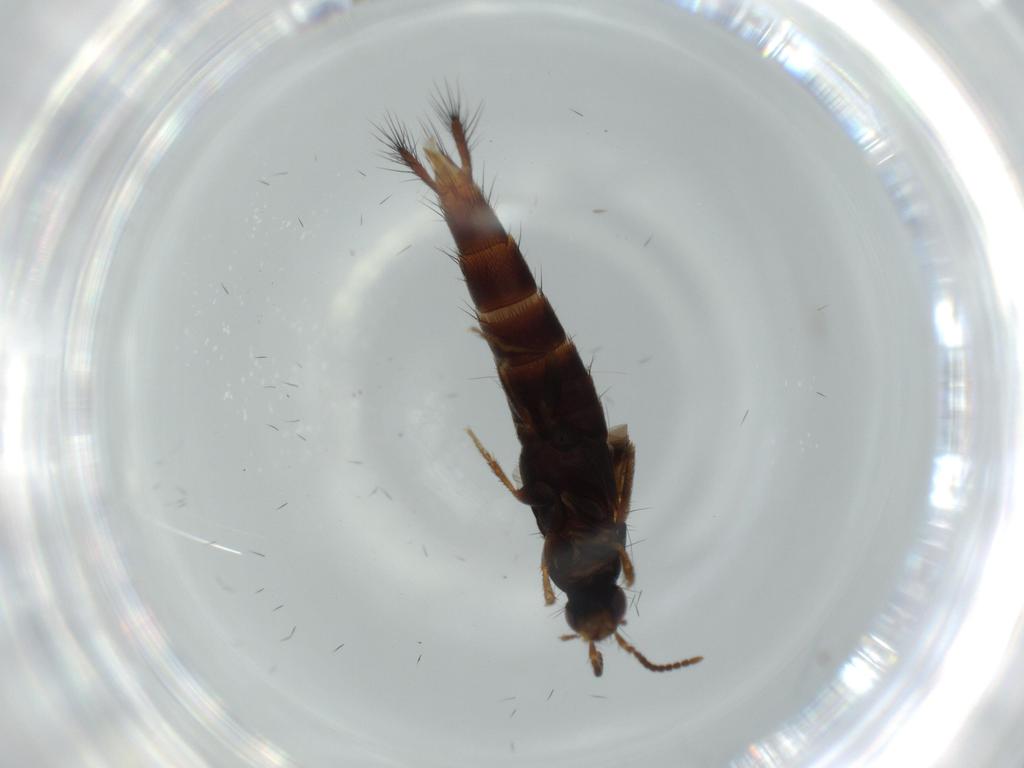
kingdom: Animalia
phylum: Arthropoda
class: Insecta
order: Coleoptera
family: Staphylinidae
